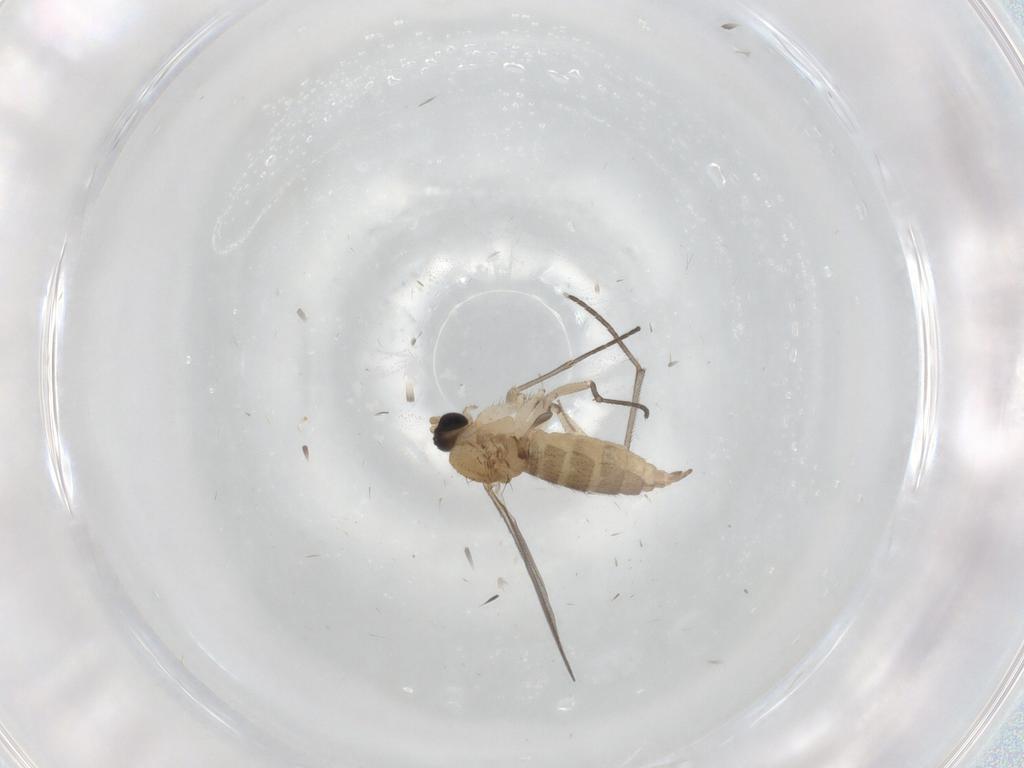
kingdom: Animalia
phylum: Arthropoda
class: Insecta
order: Diptera
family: Sciaridae
